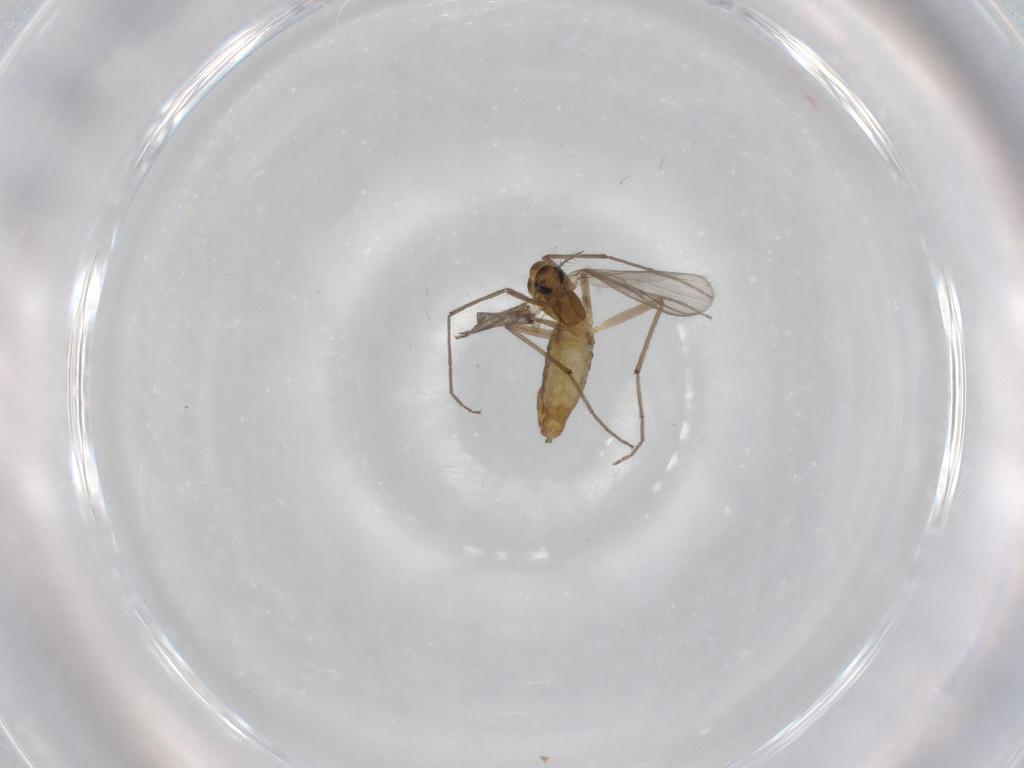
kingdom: Animalia
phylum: Arthropoda
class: Insecta
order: Diptera
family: Chironomidae
